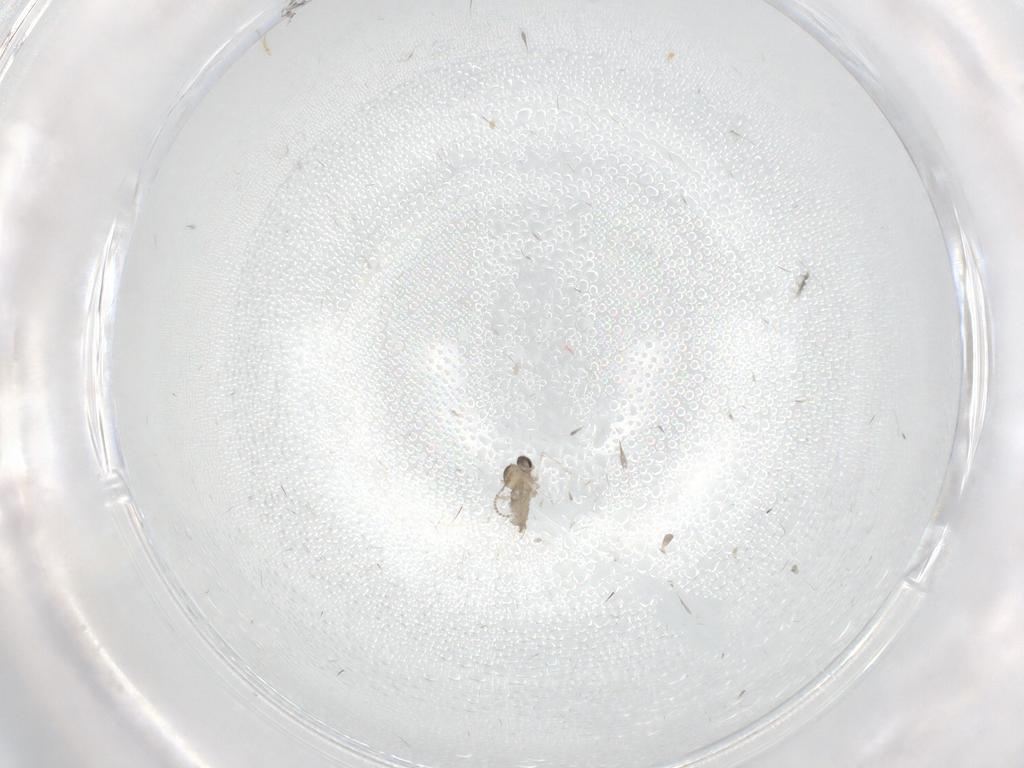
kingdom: Animalia
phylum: Arthropoda
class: Insecta
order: Diptera
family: Cecidomyiidae
